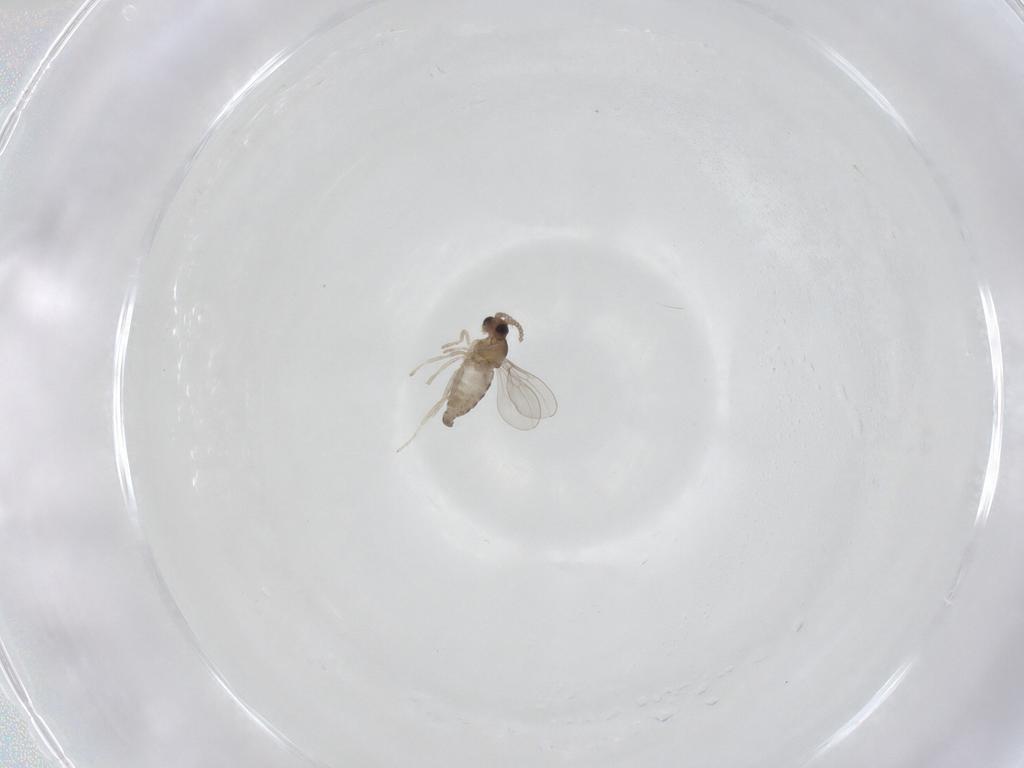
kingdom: Animalia
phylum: Arthropoda
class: Insecta
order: Diptera
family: Cecidomyiidae
